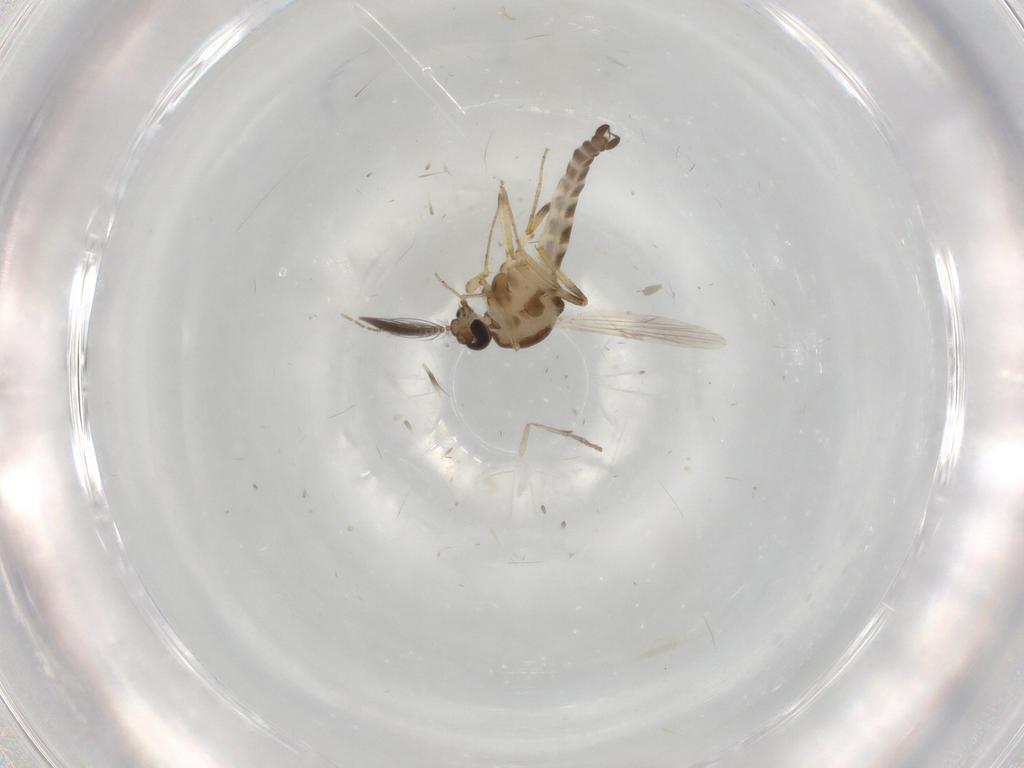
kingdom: Animalia
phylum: Arthropoda
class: Insecta
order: Diptera
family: Ceratopogonidae
